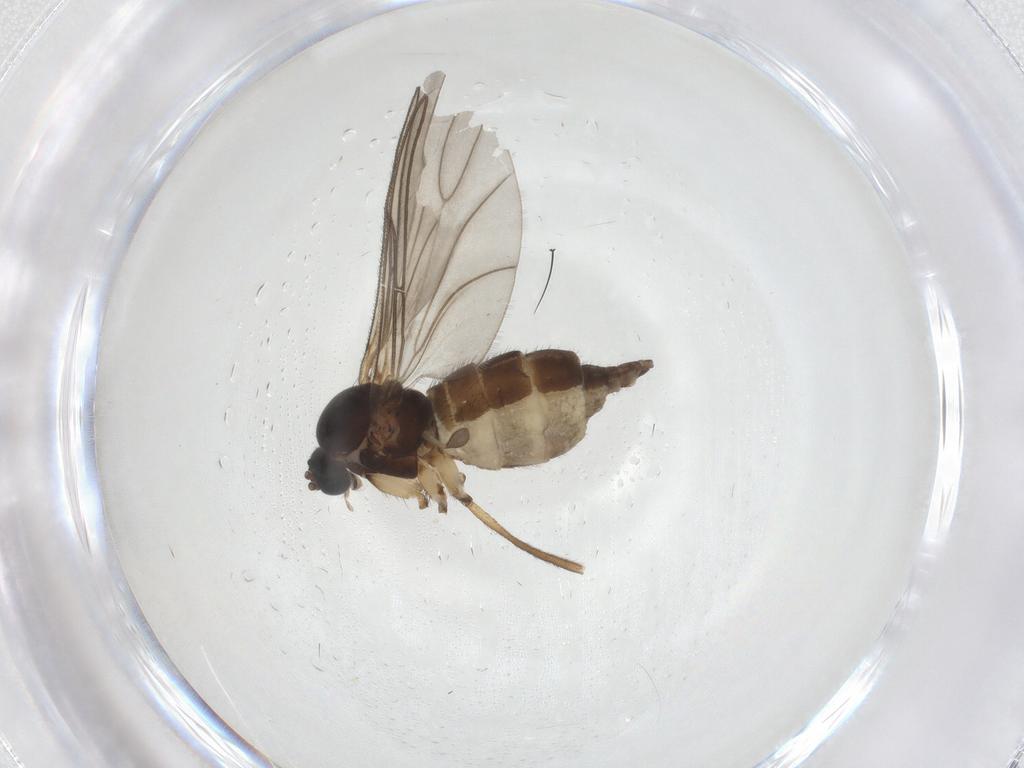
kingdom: Animalia
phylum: Arthropoda
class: Insecta
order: Diptera
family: Sciaridae
